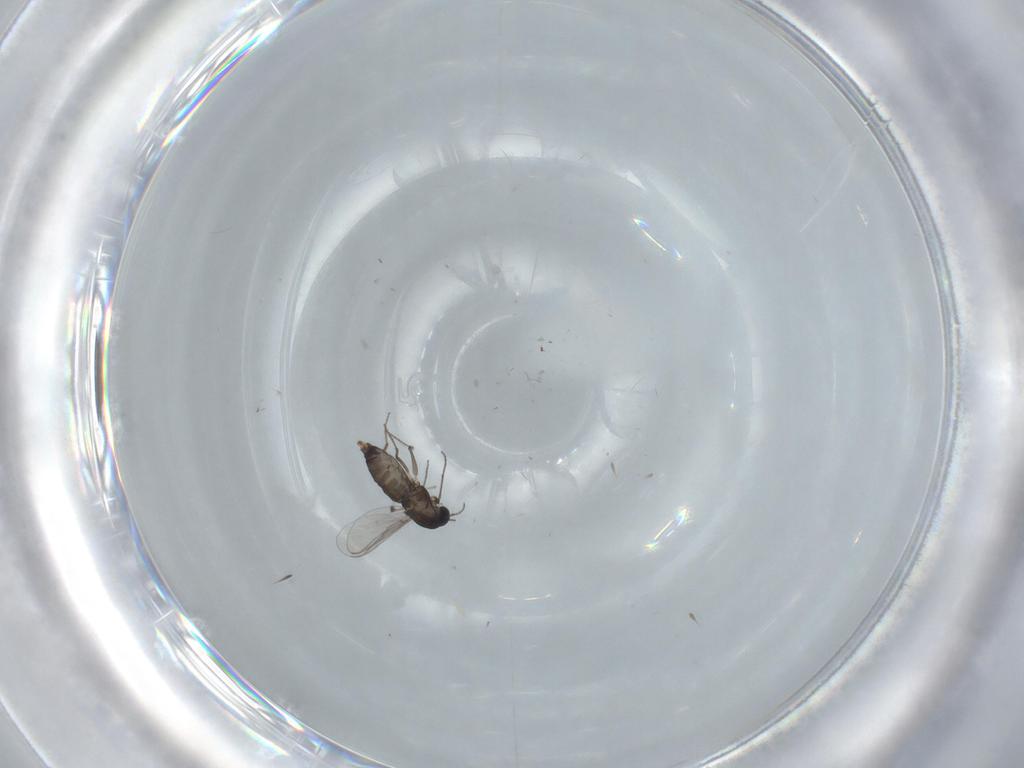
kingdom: Animalia
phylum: Arthropoda
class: Insecta
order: Diptera
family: Chironomidae
